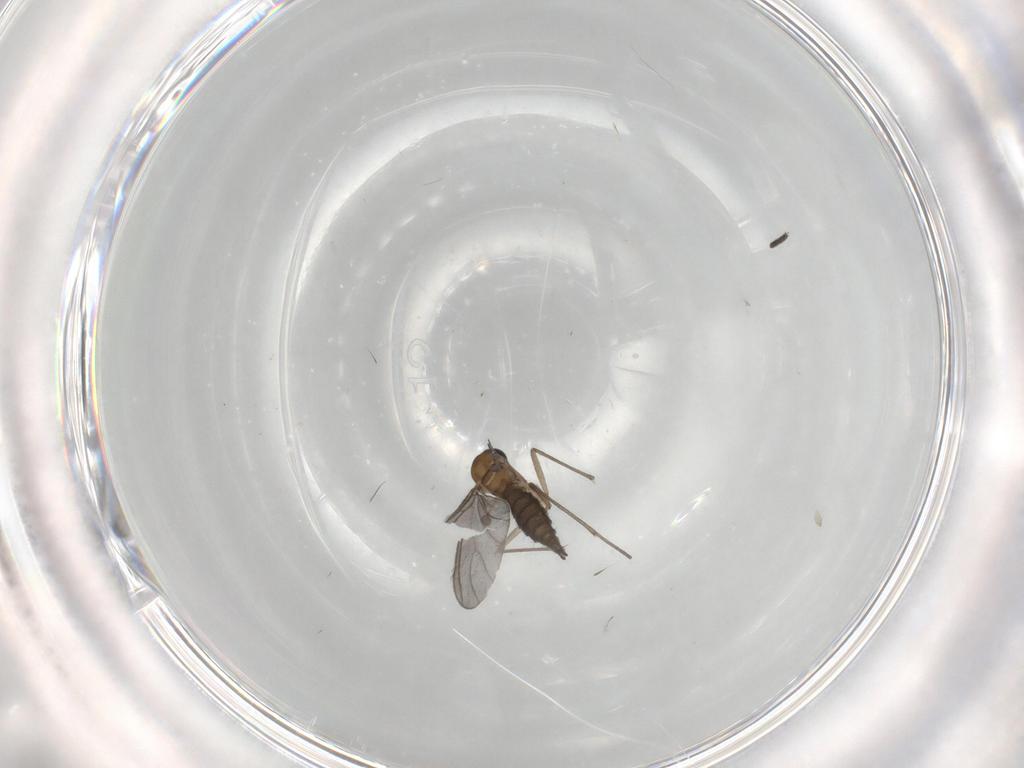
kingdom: Animalia
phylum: Arthropoda
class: Insecta
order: Diptera
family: Sciaridae
